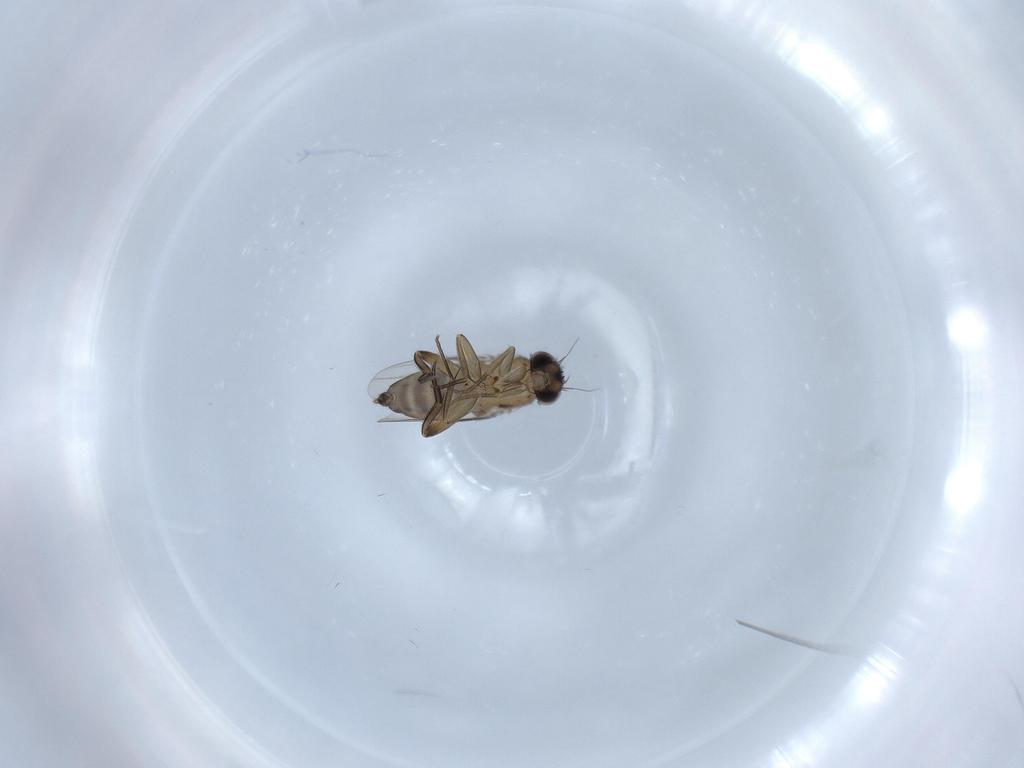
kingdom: Animalia
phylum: Arthropoda
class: Insecta
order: Diptera
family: Phoridae
